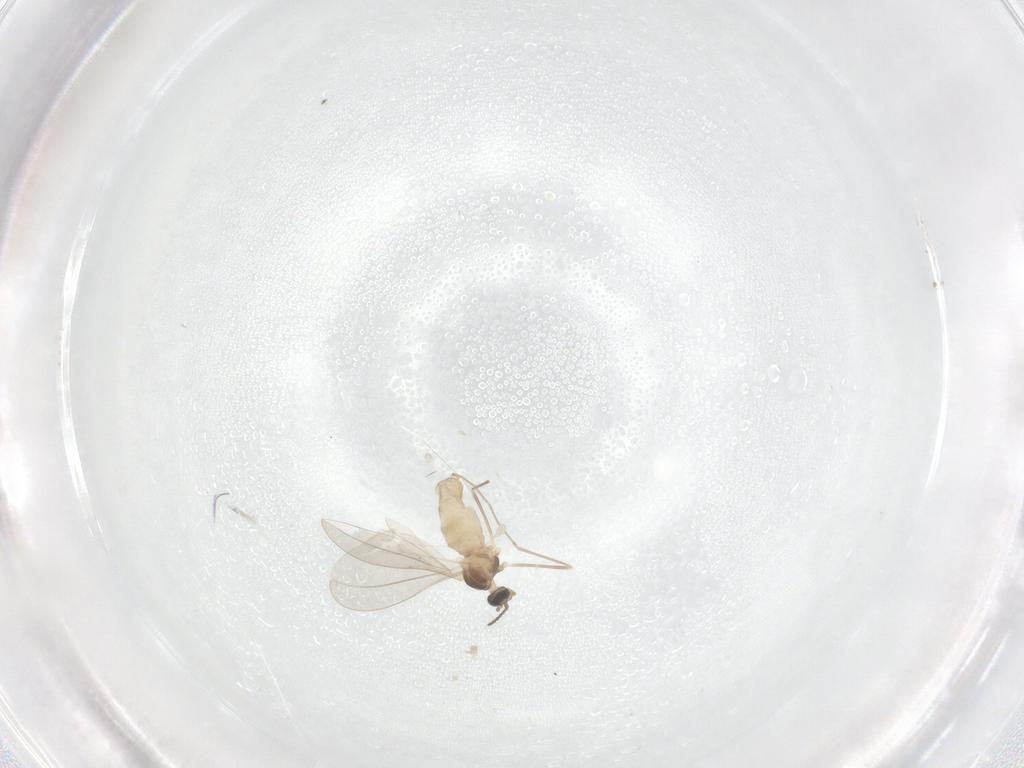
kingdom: Animalia
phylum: Arthropoda
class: Insecta
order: Diptera
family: Cecidomyiidae
